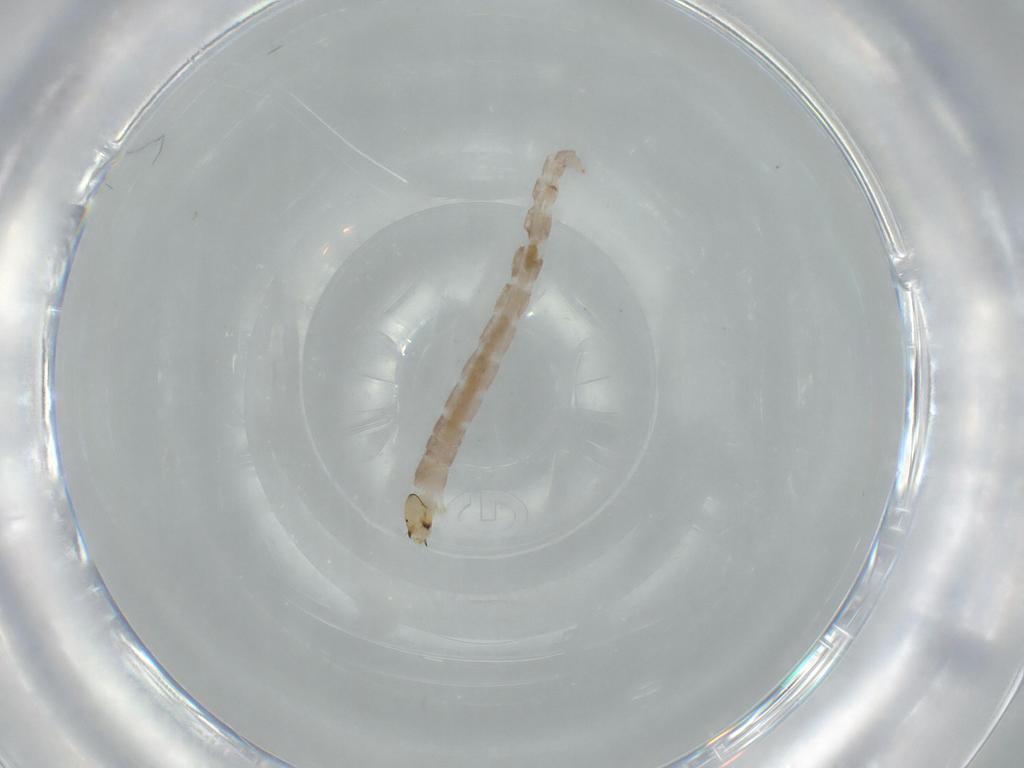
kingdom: Animalia
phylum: Arthropoda
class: Insecta
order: Diptera
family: Chironomidae
